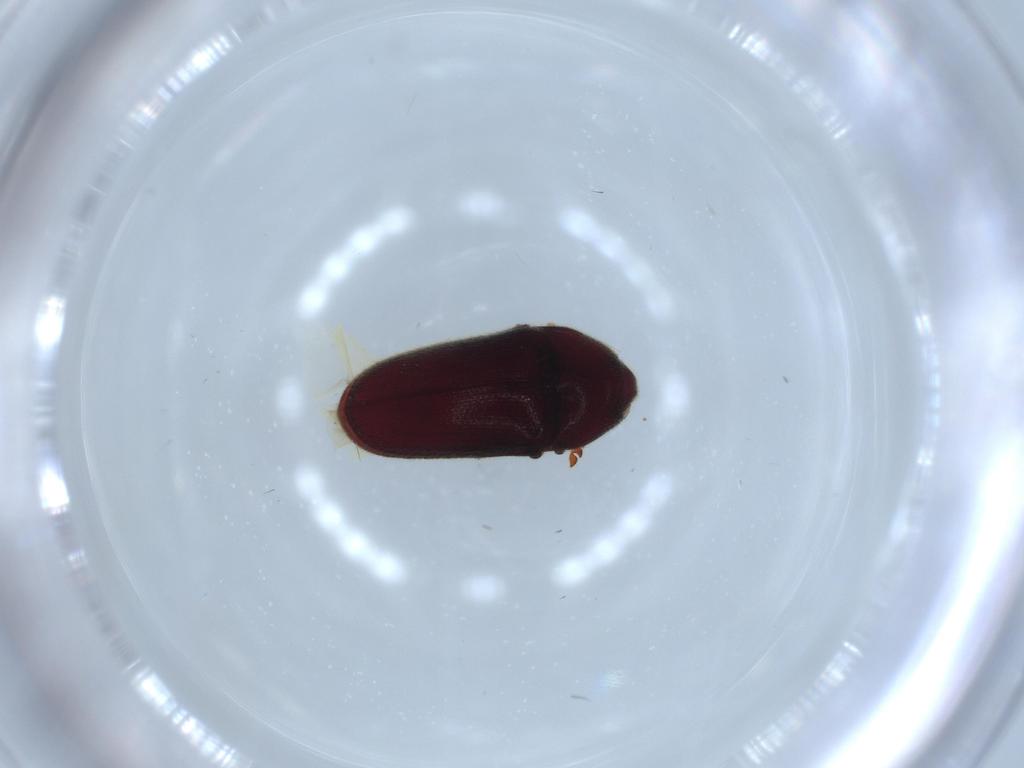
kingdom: Animalia
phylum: Arthropoda
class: Insecta
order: Coleoptera
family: Throscidae
